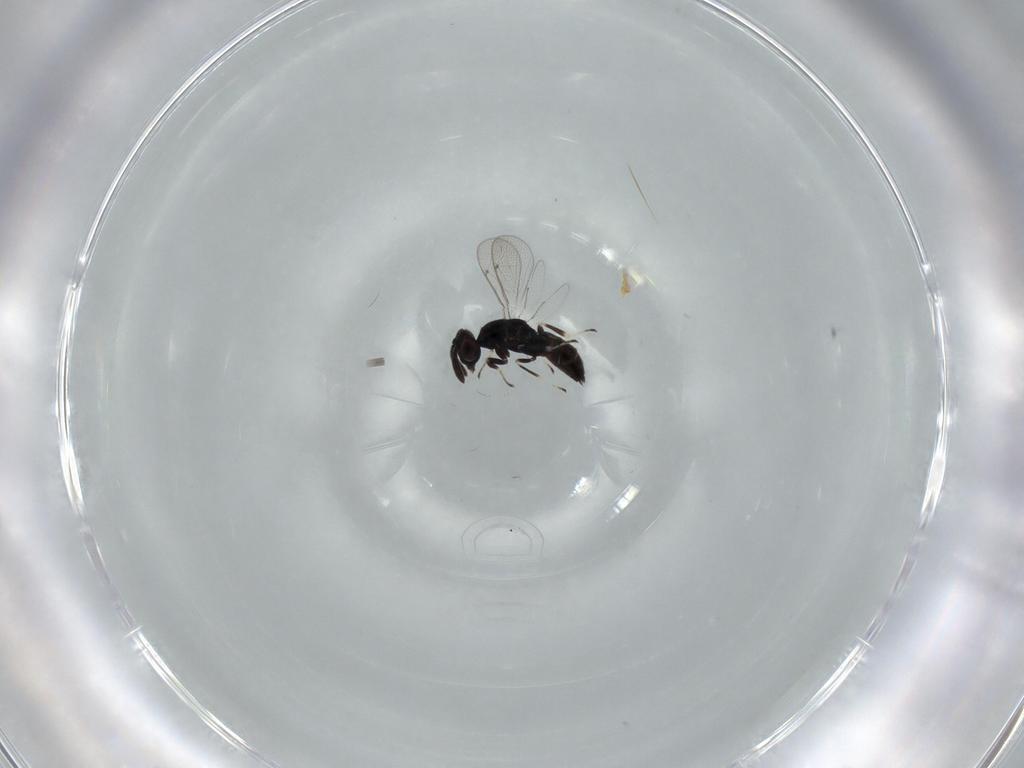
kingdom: Animalia
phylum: Arthropoda
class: Insecta
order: Hymenoptera
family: Eulophidae
